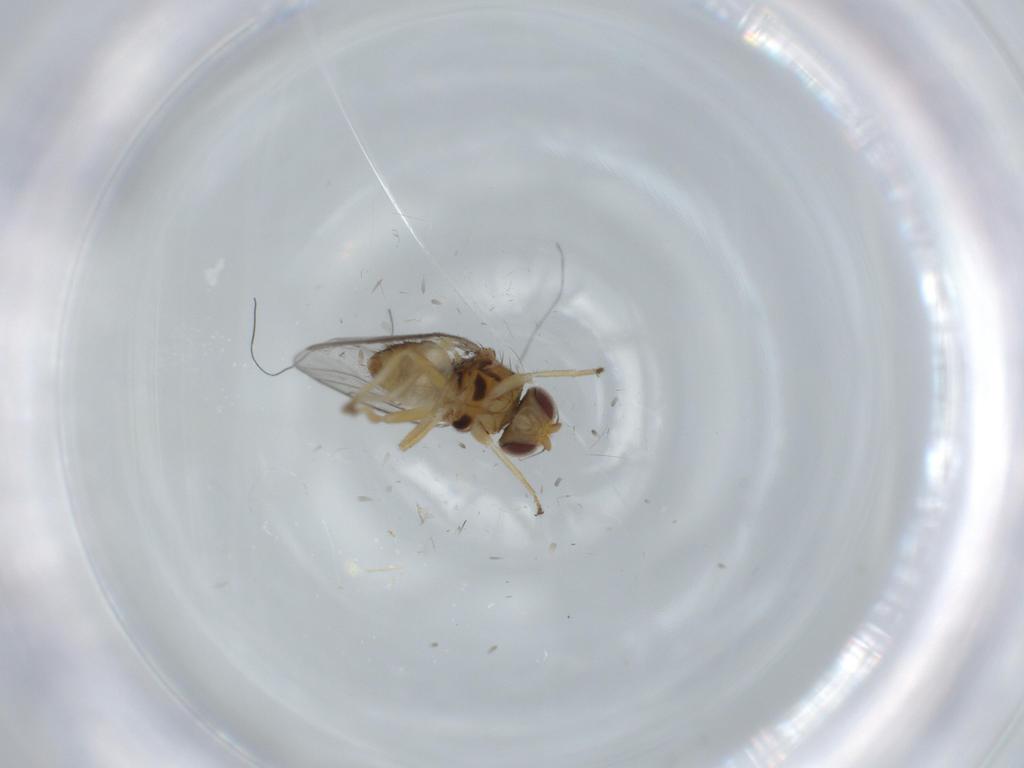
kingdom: Animalia
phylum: Arthropoda
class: Insecta
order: Diptera
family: Chloropidae
